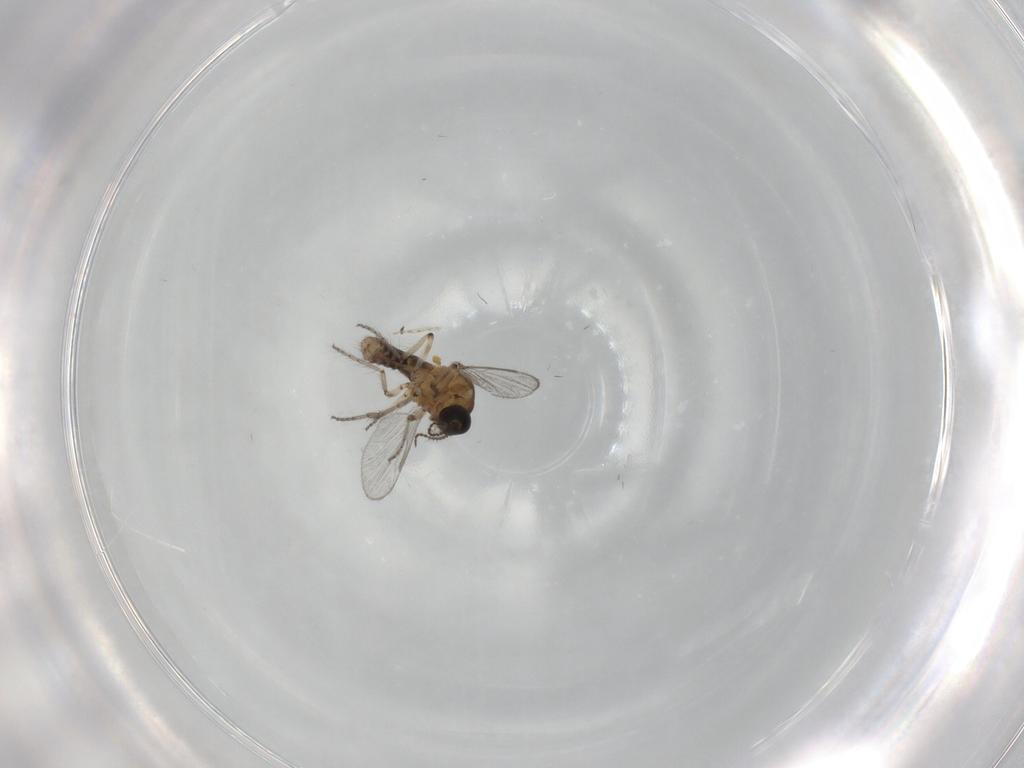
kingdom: Animalia
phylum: Arthropoda
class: Insecta
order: Diptera
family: Ceratopogonidae
